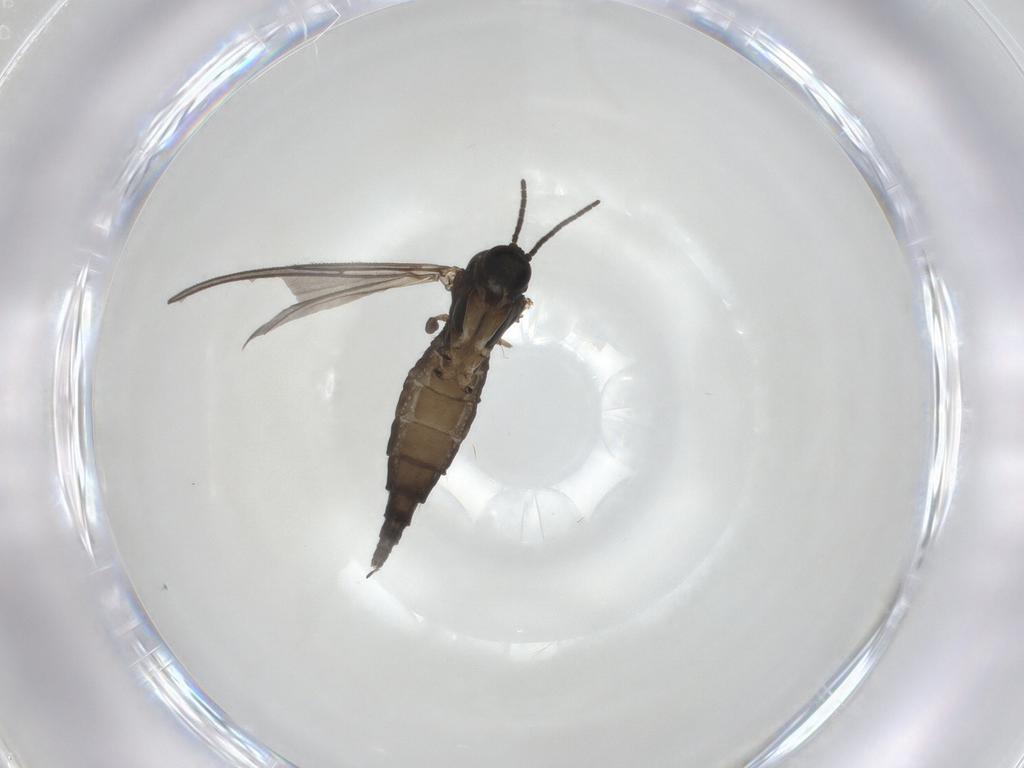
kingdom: Animalia
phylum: Arthropoda
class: Insecta
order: Diptera
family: Sciaridae
